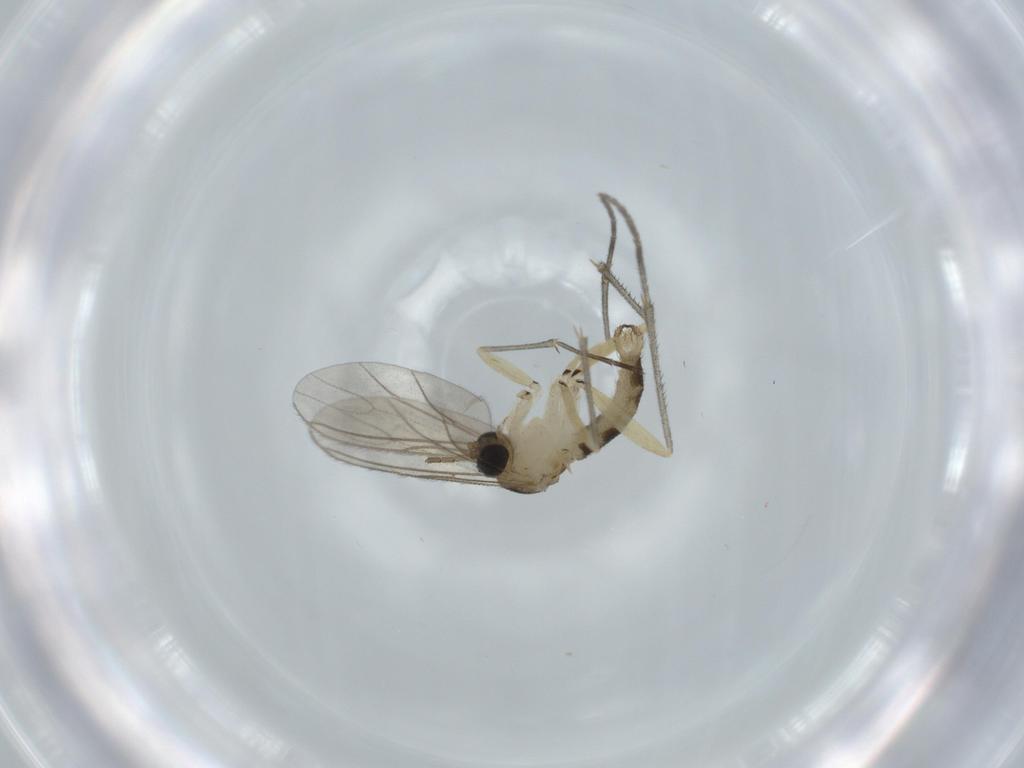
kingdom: Animalia
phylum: Arthropoda
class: Insecta
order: Diptera
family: Sciaridae
